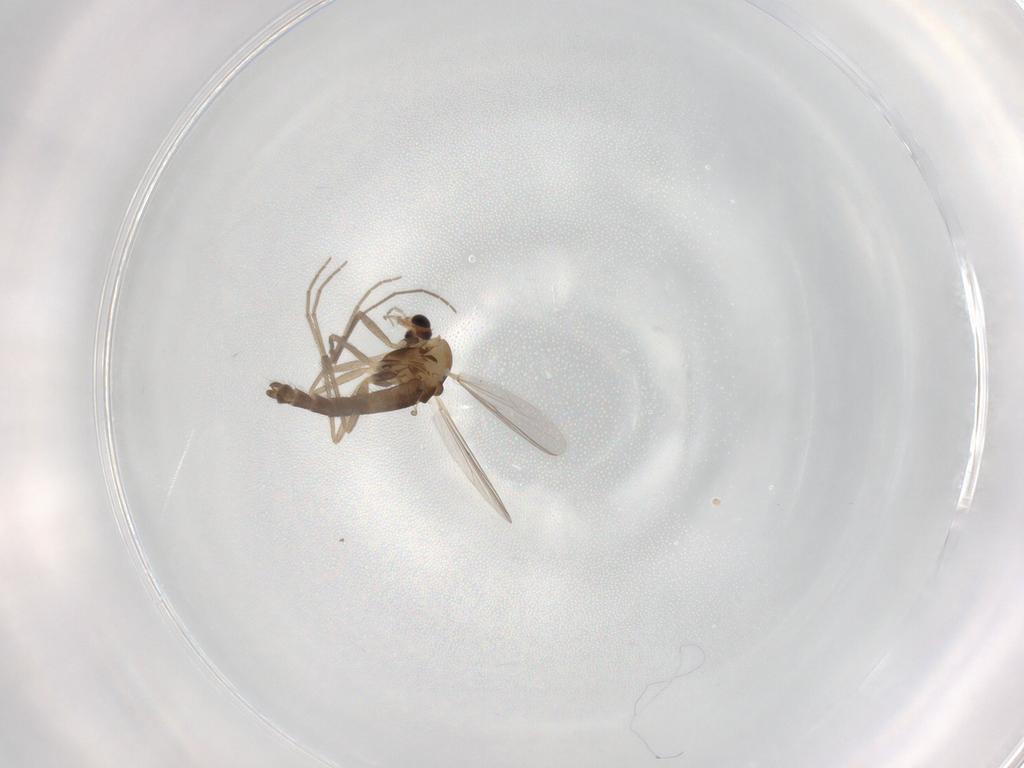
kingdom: Animalia
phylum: Arthropoda
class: Insecta
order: Diptera
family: Chironomidae
